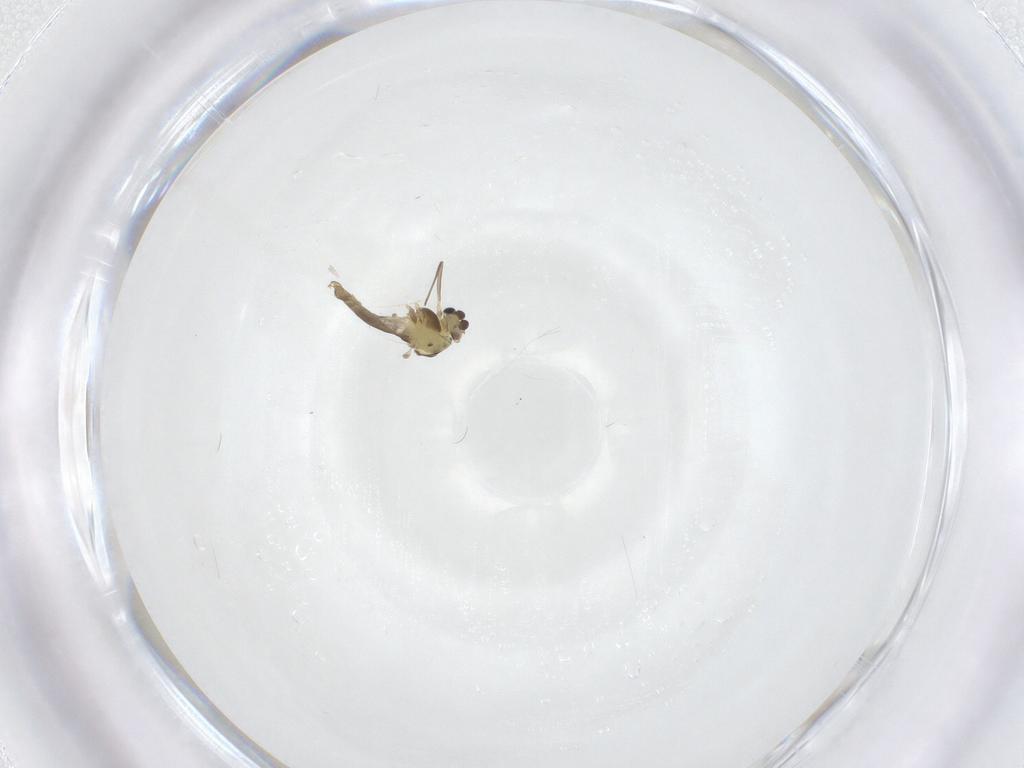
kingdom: Animalia
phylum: Arthropoda
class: Insecta
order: Diptera
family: Chironomidae
